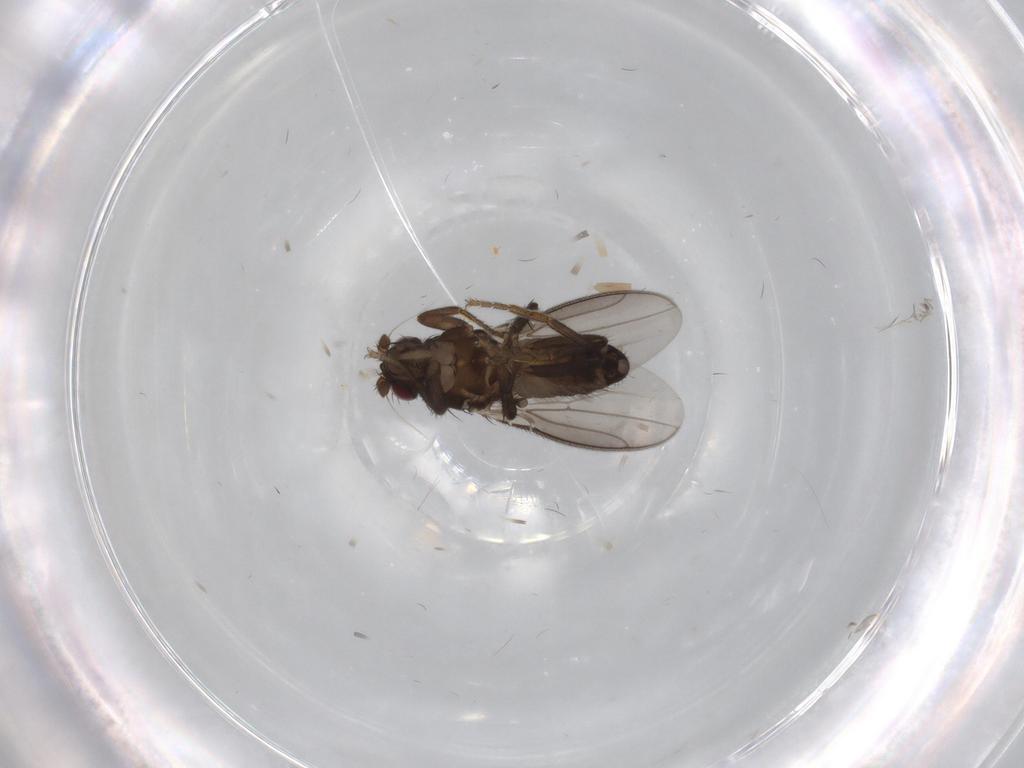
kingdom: Animalia
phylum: Arthropoda
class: Insecta
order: Diptera
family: Sphaeroceridae
